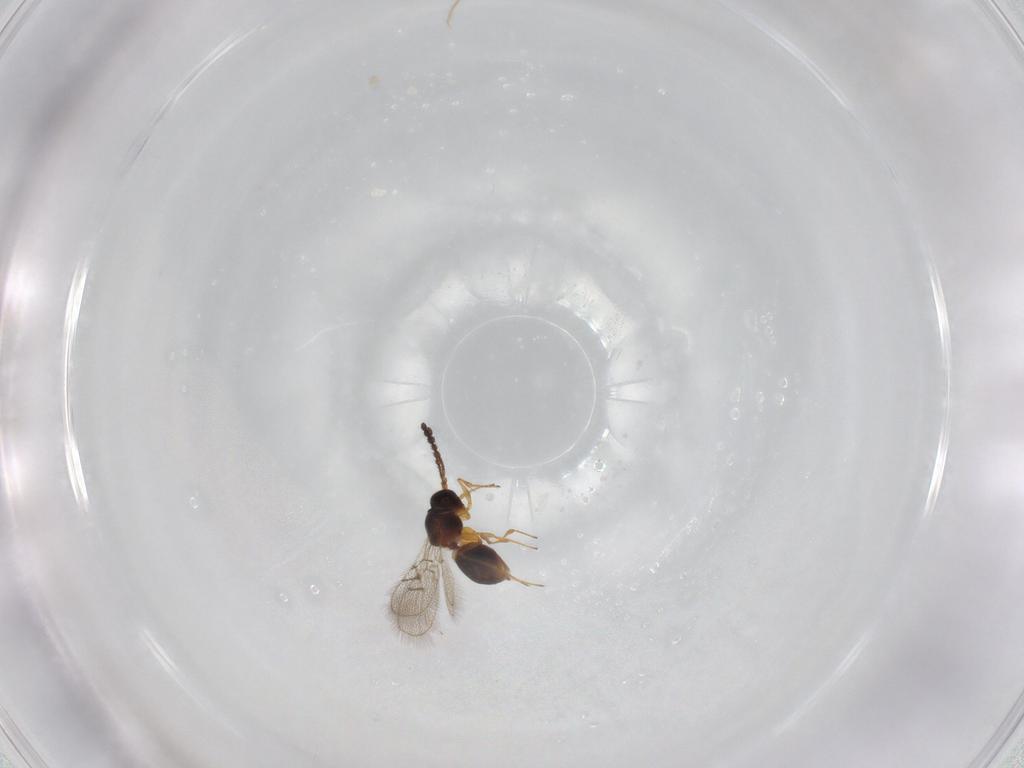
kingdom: Animalia
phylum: Arthropoda
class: Insecta
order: Hymenoptera
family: Figitidae
